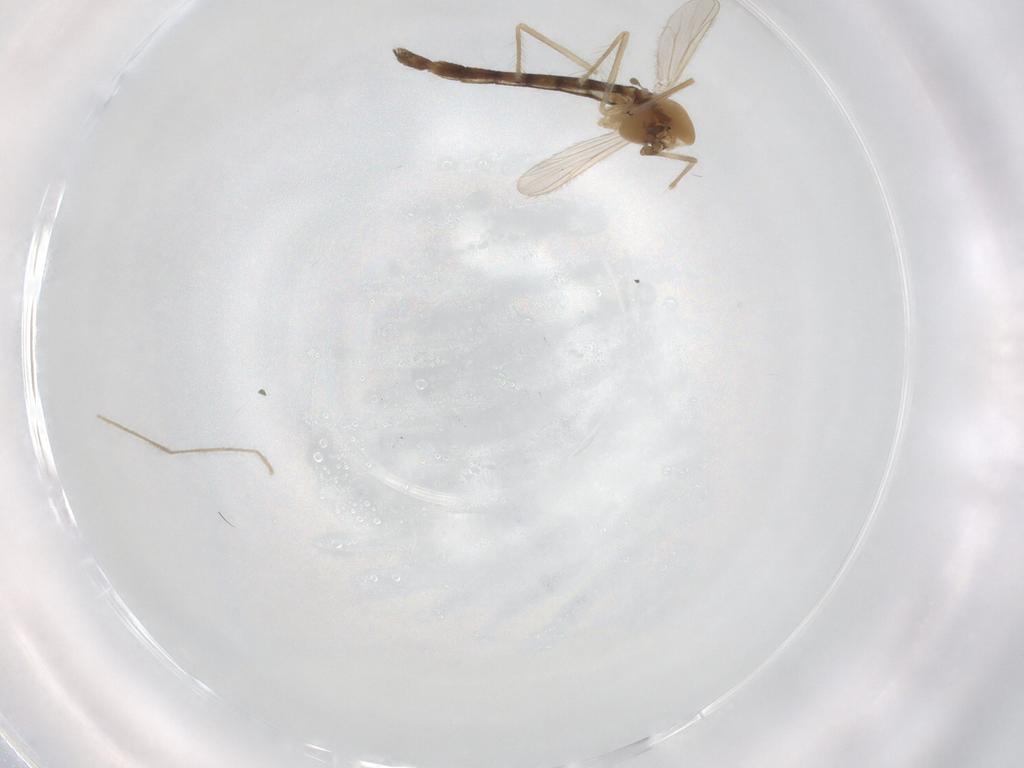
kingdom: Animalia
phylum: Arthropoda
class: Insecta
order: Diptera
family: Chironomidae
